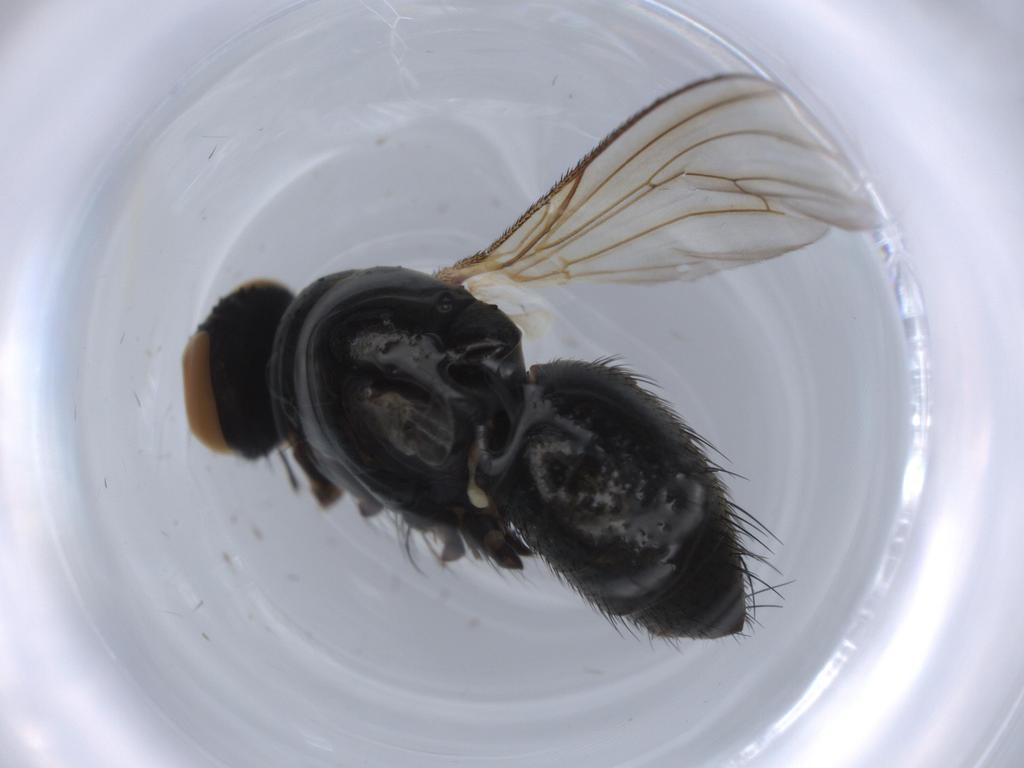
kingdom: Animalia
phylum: Arthropoda
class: Insecta
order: Diptera
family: Muscidae
